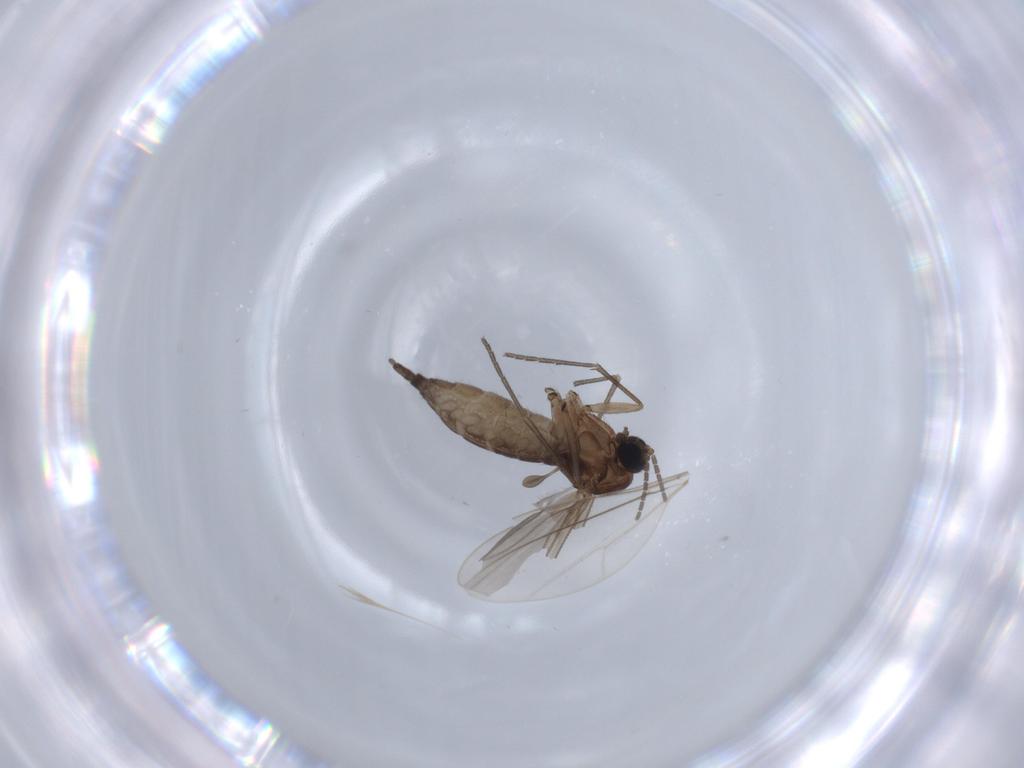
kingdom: Animalia
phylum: Arthropoda
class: Insecta
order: Diptera
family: Sciaridae
